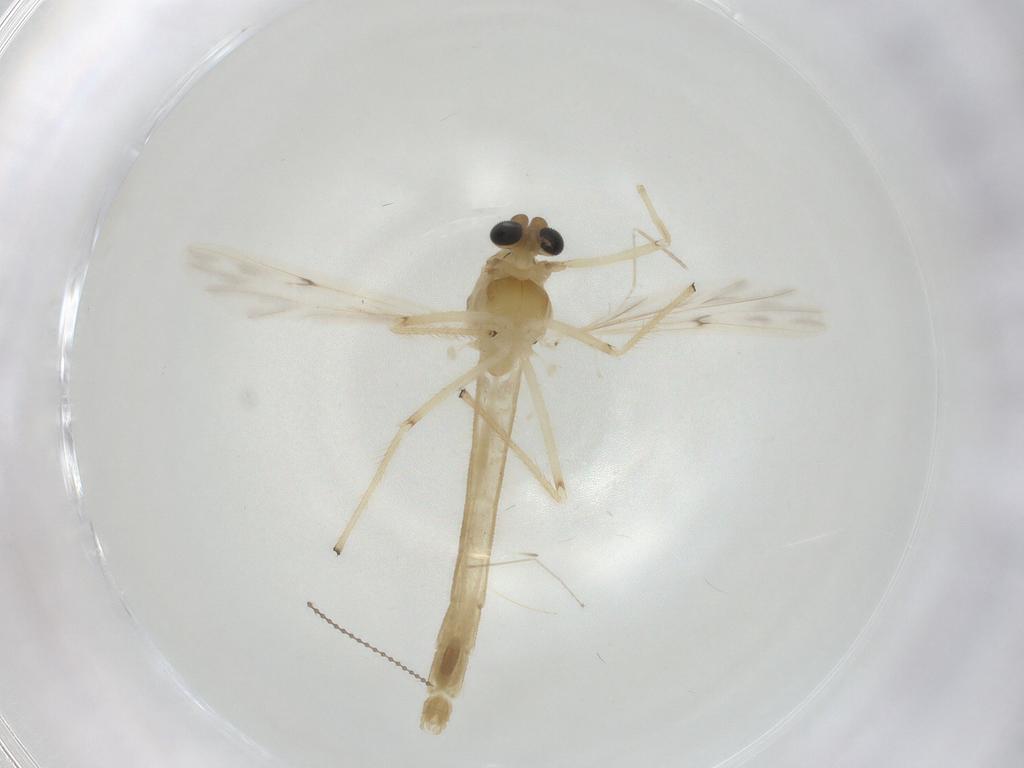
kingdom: Animalia
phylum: Arthropoda
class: Insecta
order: Diptera
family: Chironomidae
